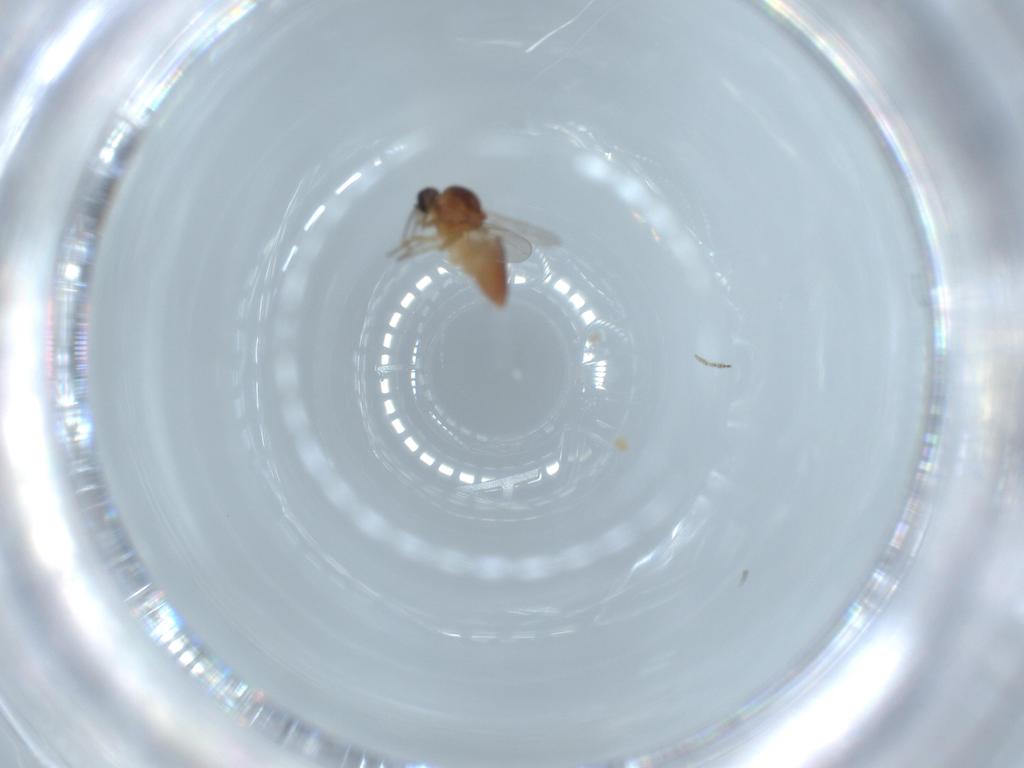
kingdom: Animalia
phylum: Arthropoda
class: Insecta
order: Diptera
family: Ceratopogonidae
